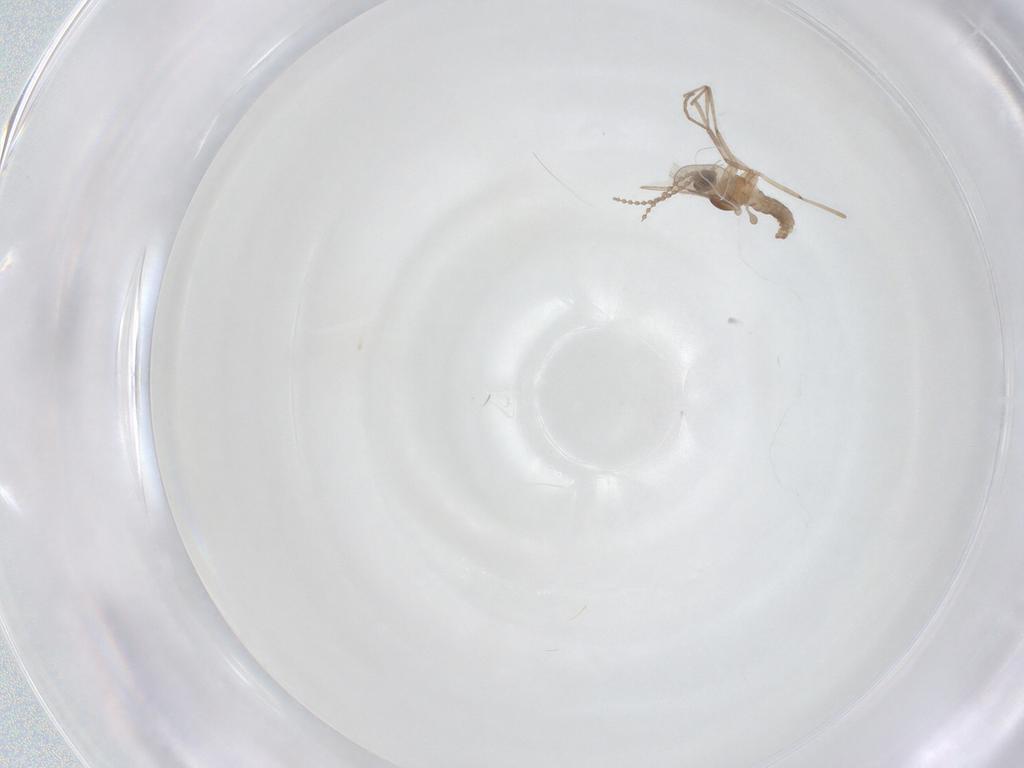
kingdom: Animalia
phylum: Arthropoda
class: Insecta
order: Diptera
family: Cecidomyiidae
